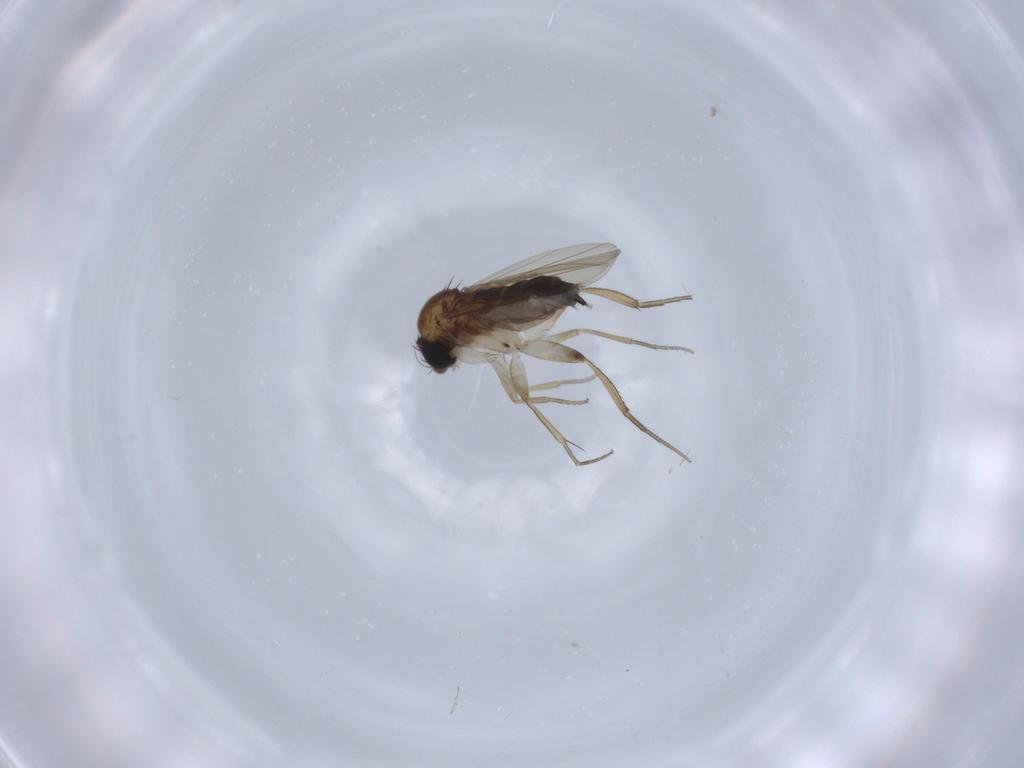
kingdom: Animalia
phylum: Arthropoda
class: Insecta
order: Diptera
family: Phoridae
